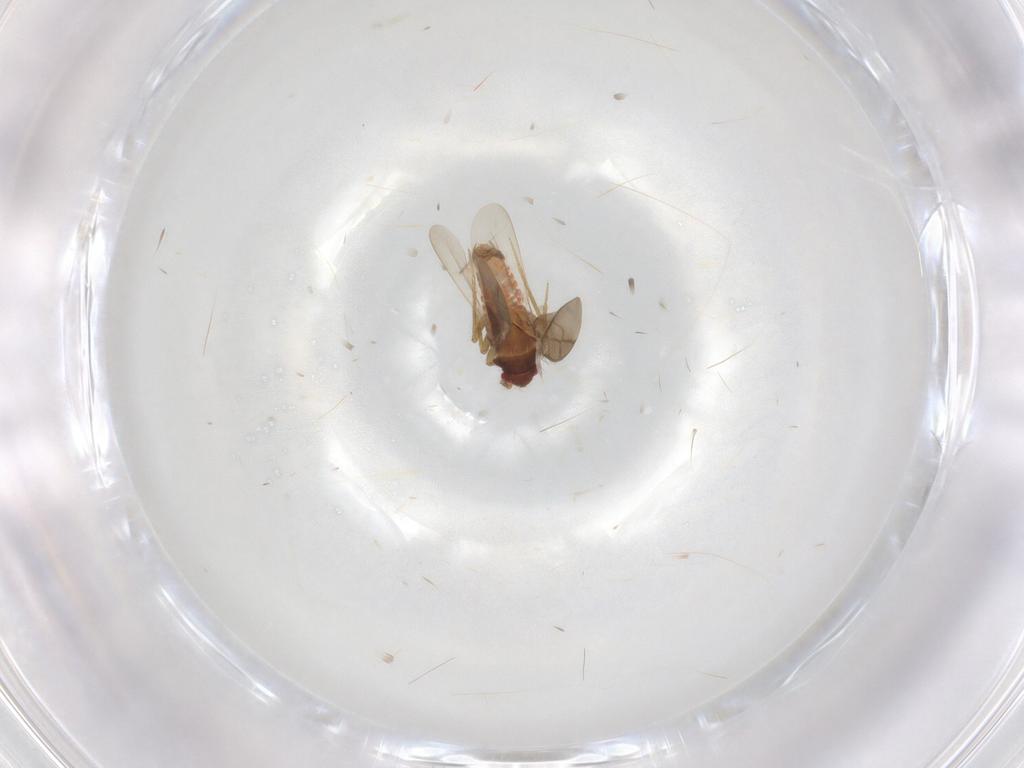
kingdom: Animalia
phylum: Arthropoda
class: Insecta
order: Hemiptera
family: Ceratocombidae
